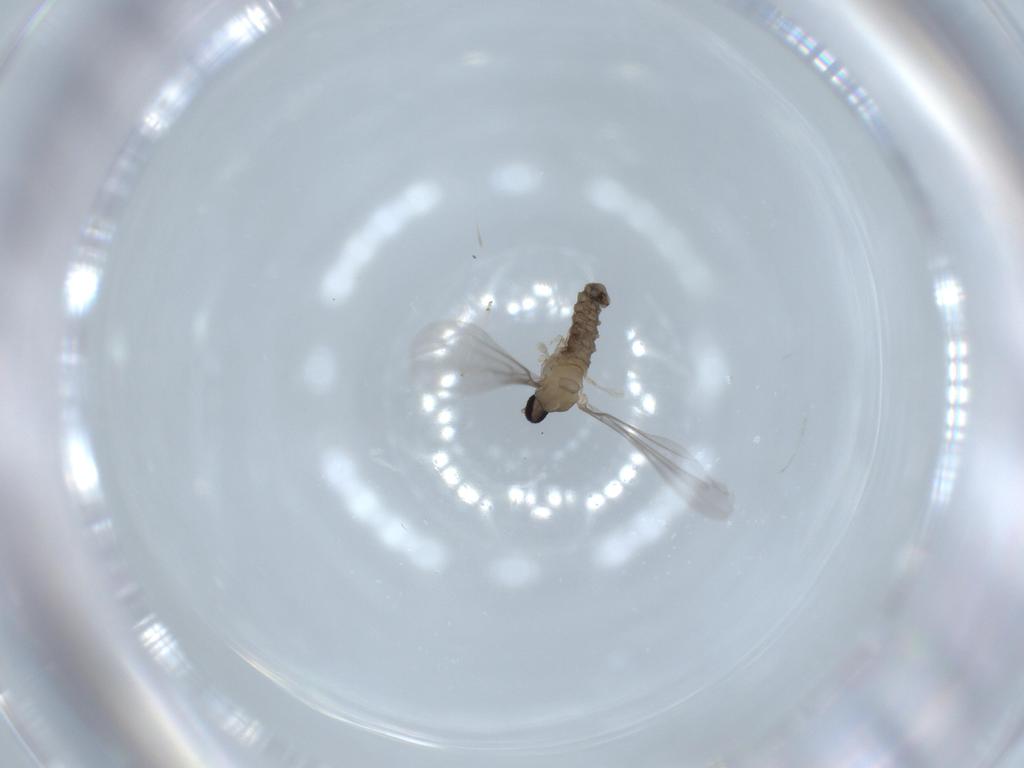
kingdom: Animalia
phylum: Arthropoda
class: Insecta
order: Diptera
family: Cecidomyiidae
